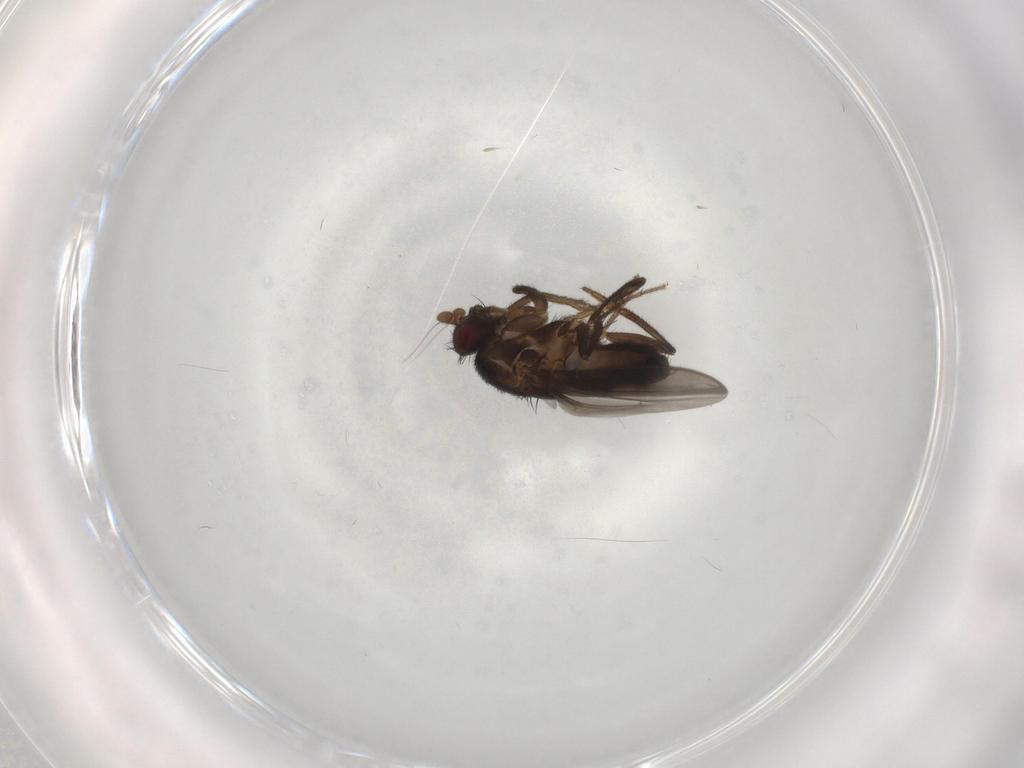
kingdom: Animalia
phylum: Arthropoda
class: Insecta
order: Diptera
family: Sphaeroceridae
